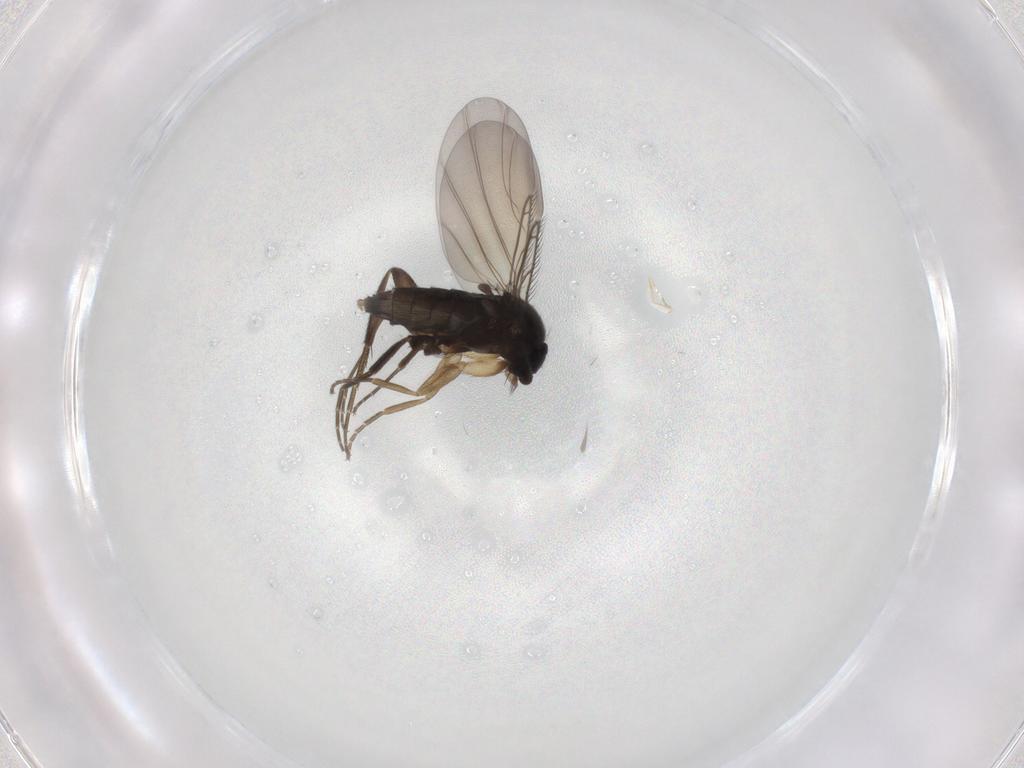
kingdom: Animalia
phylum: Arthropoda
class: Insecta
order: Diptera
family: Phoridae
